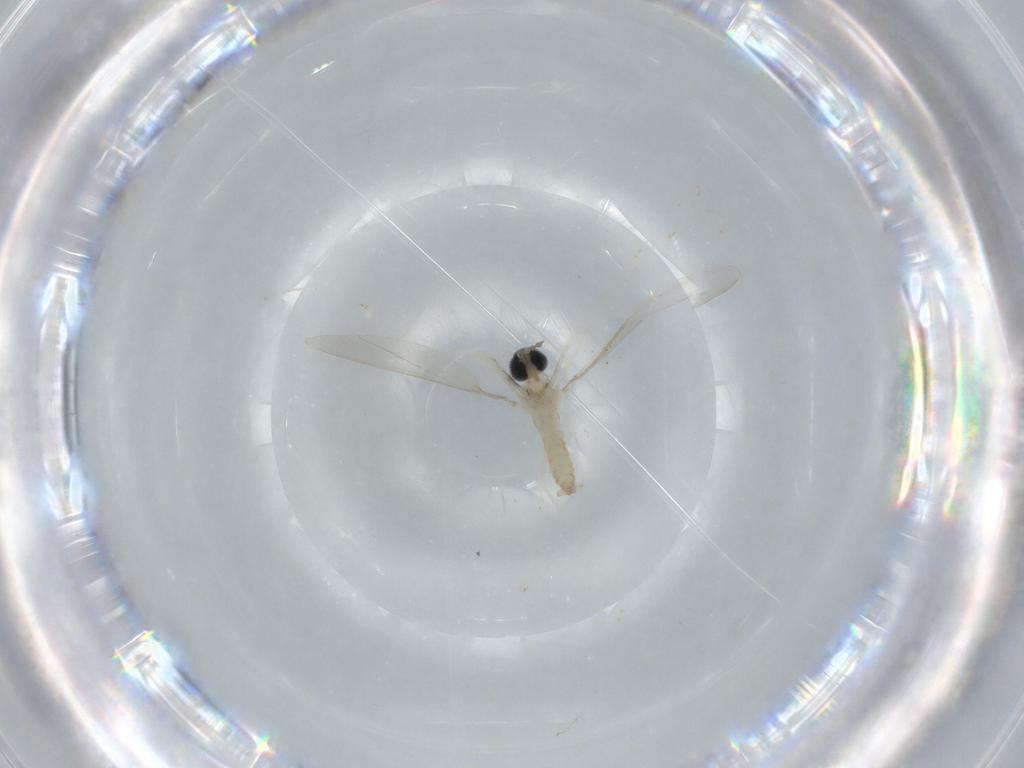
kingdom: Animalia
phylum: Arthropoda
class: Insecta
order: Diptera
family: Cecidomyiidae
